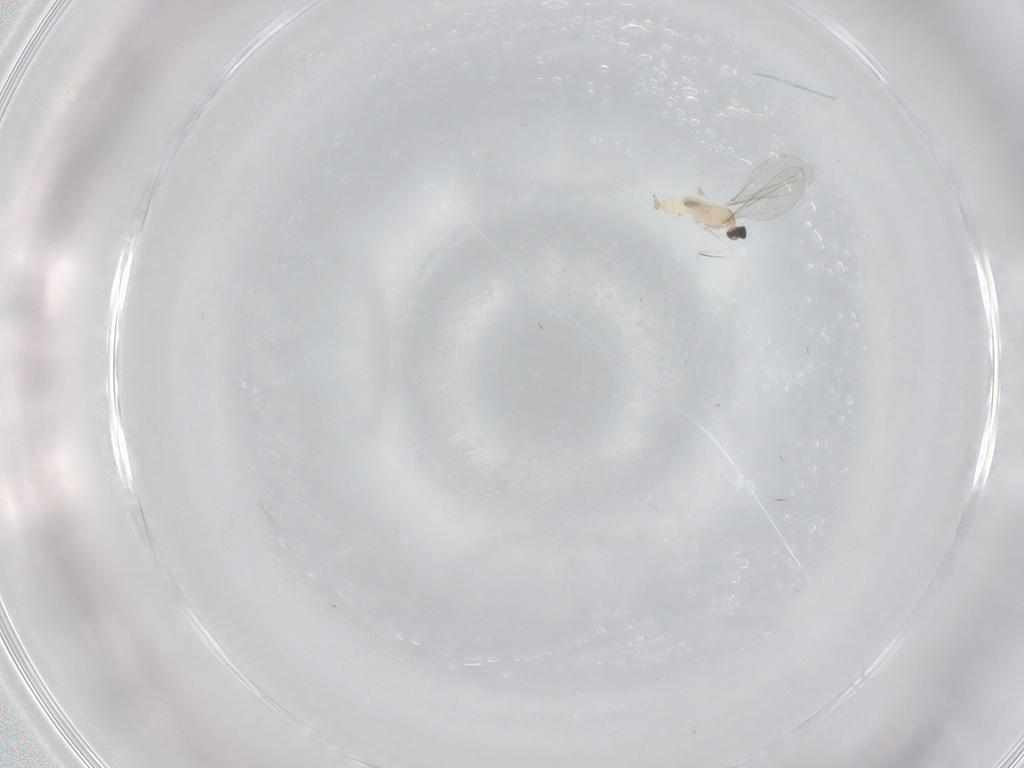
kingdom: Animalia
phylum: Arthropoda
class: Insecta
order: Diptera
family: Cecidomyiidae
